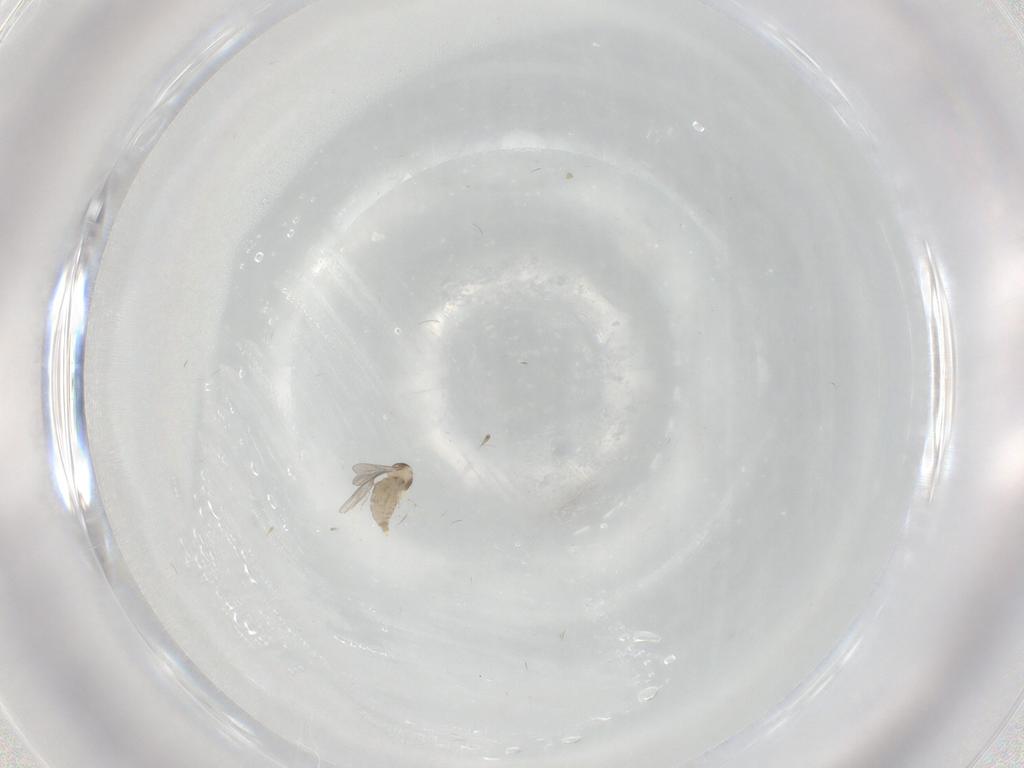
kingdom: Animalia
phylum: Arthropoda
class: Insecta
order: Diptera
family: Cecidomyiidae
